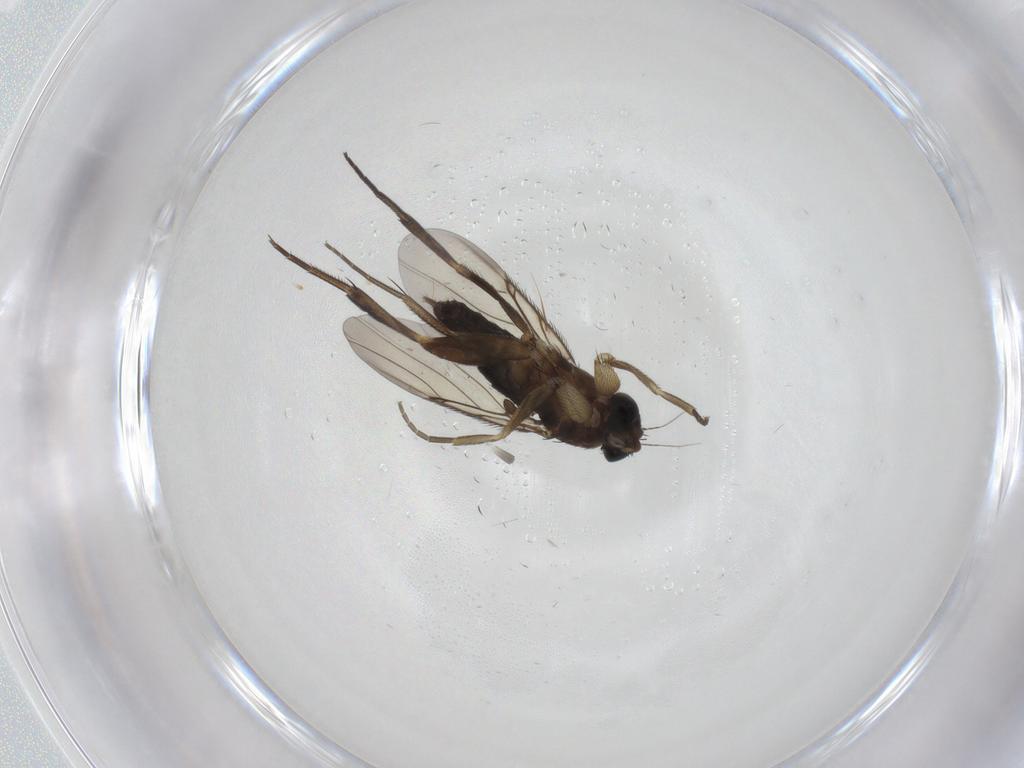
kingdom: Animalia
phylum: Arthropoda
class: Insecta
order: Diptera
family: Phoridae
